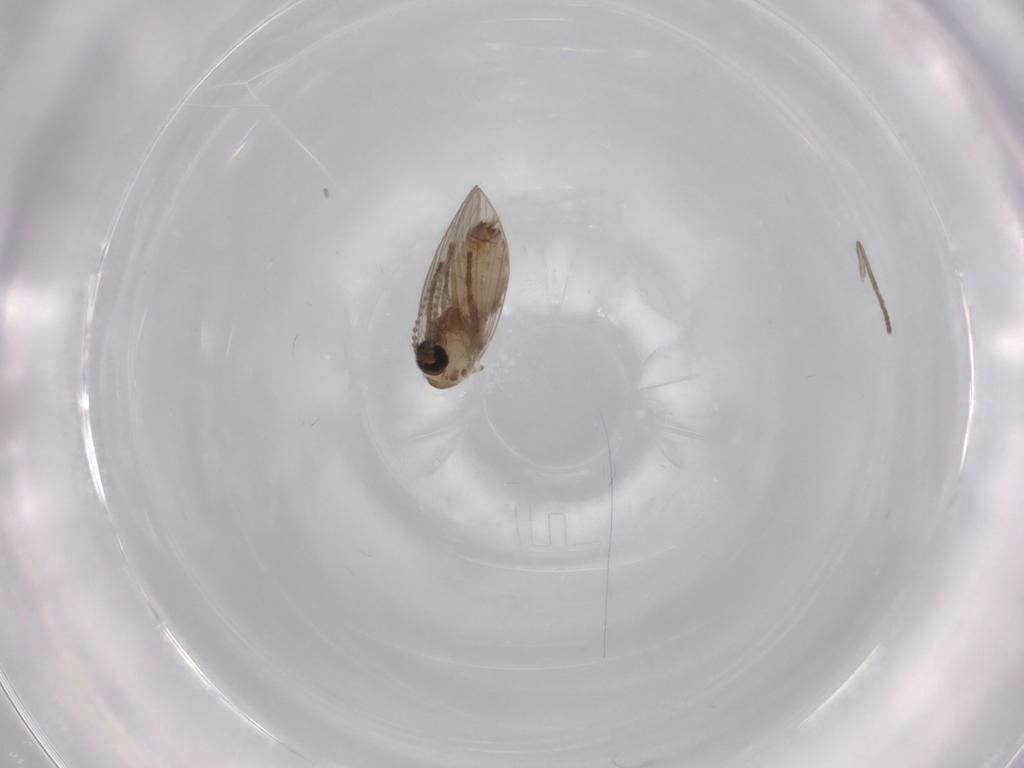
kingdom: Animalia
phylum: Arthropoda
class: Insecta
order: Diptera
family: Psychodidae
